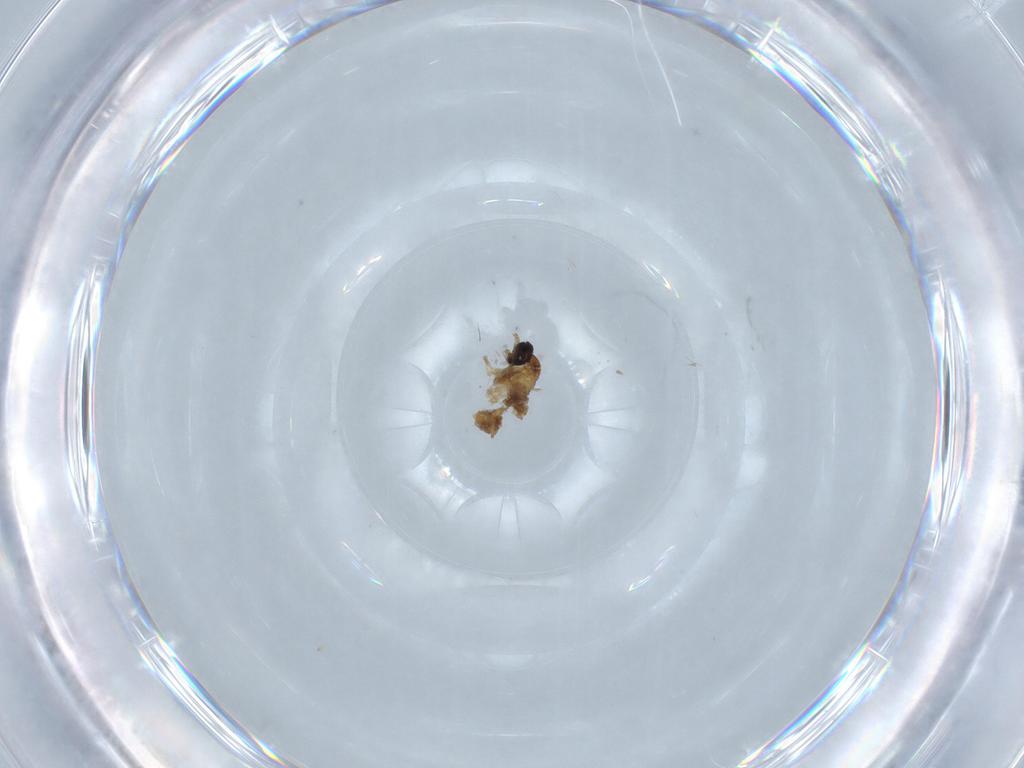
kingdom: Animalia
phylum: Arthropoda
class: Insecta
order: Diptera
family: Cecidomyiidae
